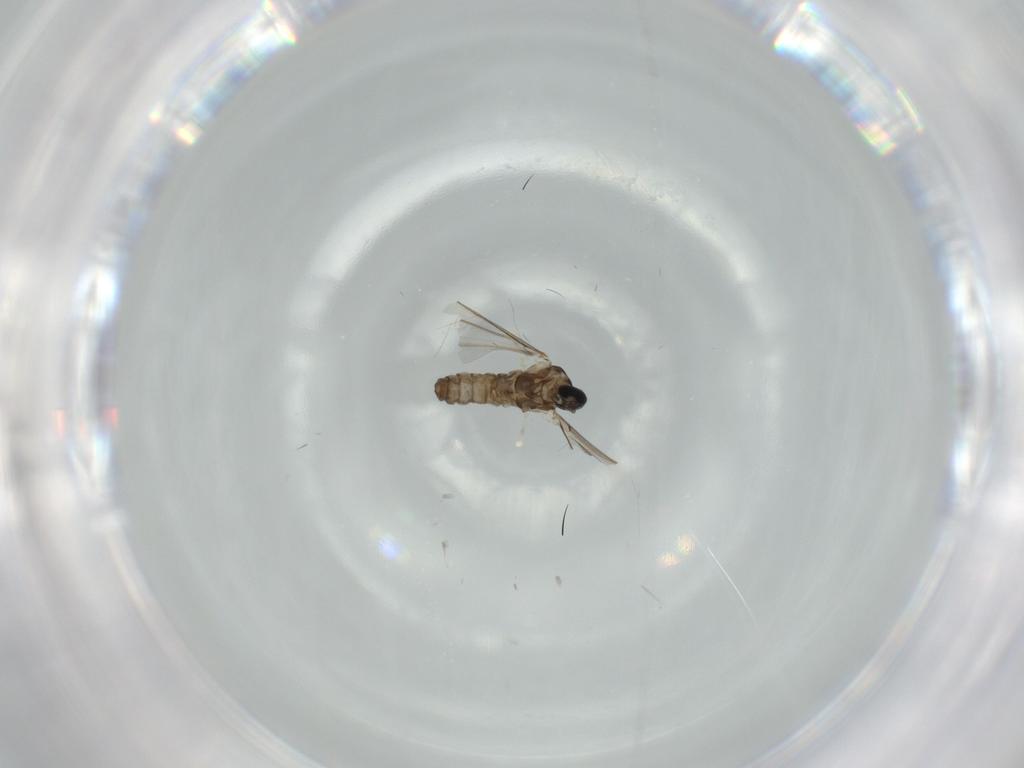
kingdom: Animalia
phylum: Arthropoda
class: Insecta
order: Diptera
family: Cecidomyiidae
